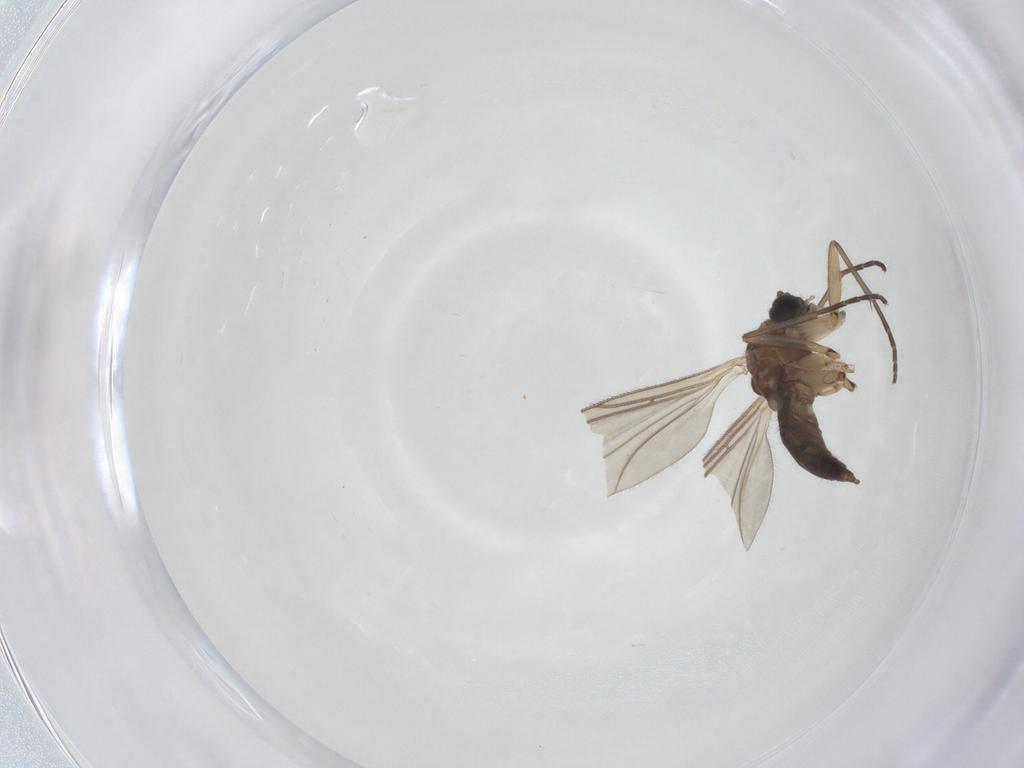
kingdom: Animalia
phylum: Arthropoda
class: Insecta
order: Diptera
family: Sciaridae
